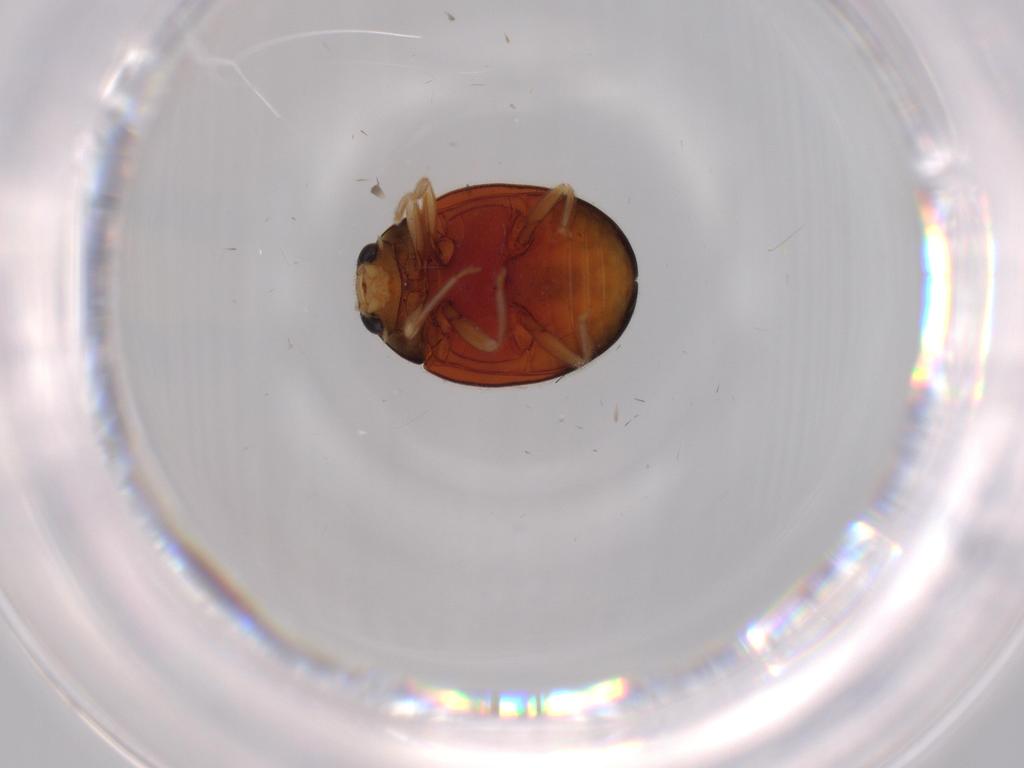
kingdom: Animalia
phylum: Arthropoda
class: Insecta
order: Coleoptera
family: Coccinellidae
